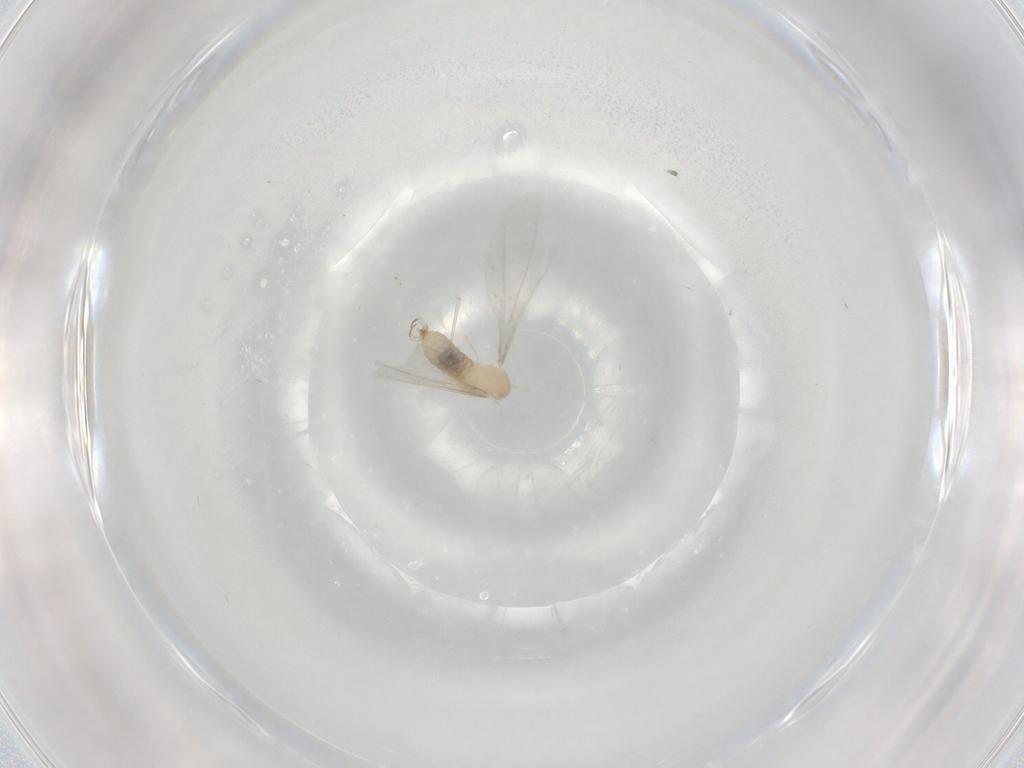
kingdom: Animalia
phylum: Arthropoda
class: Insecta
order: Diptera
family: Cecidomyiidae
